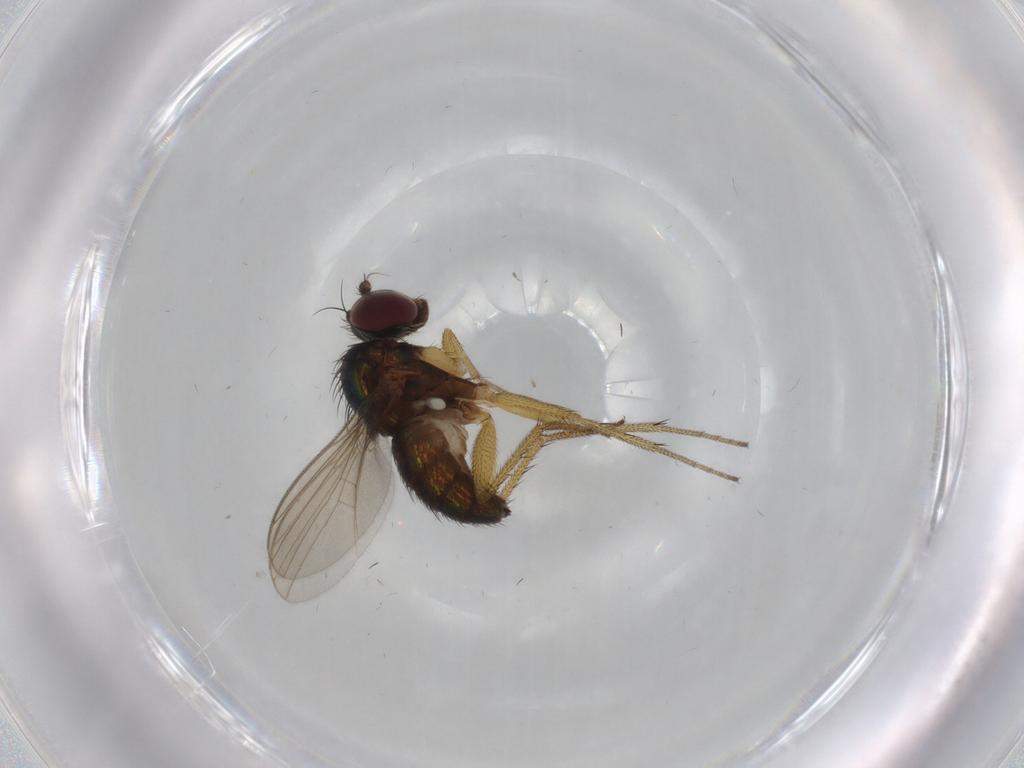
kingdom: Animalia
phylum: Arthropoda
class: Insecta
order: Diptera
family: Dolichopodidae
